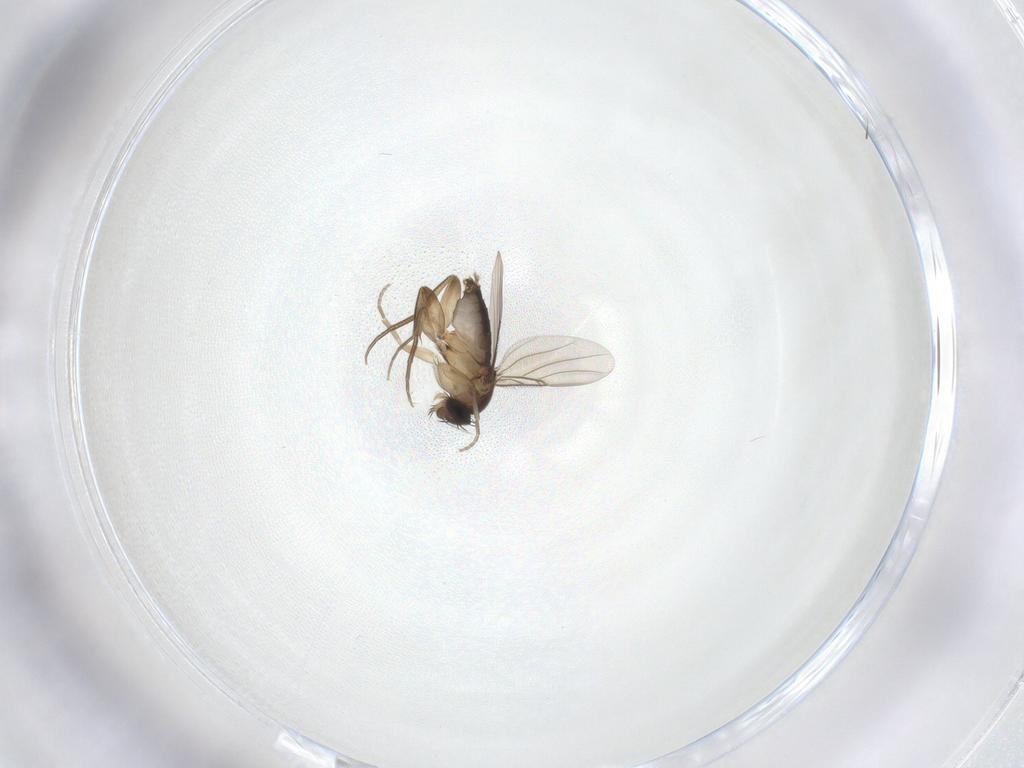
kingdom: Animalia
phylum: Arthropoda
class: Insecta
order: Diptera
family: Phoridae
